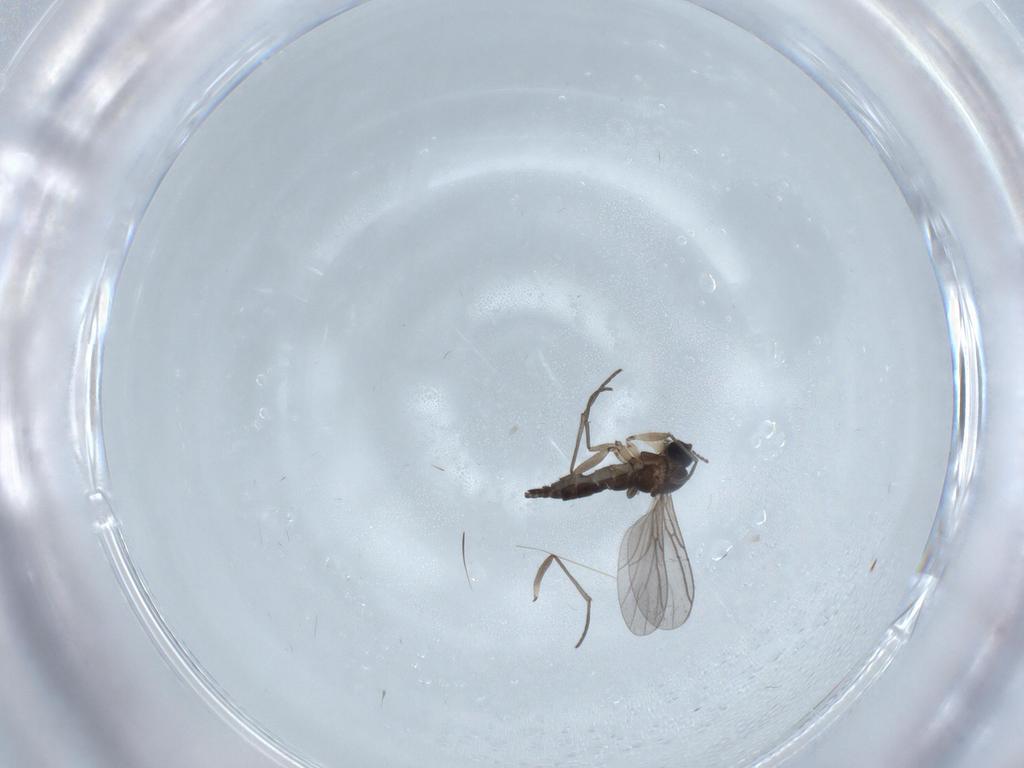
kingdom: Animalia
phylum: Arthropoda
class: Insecta
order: Diptera
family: Sciaridae
